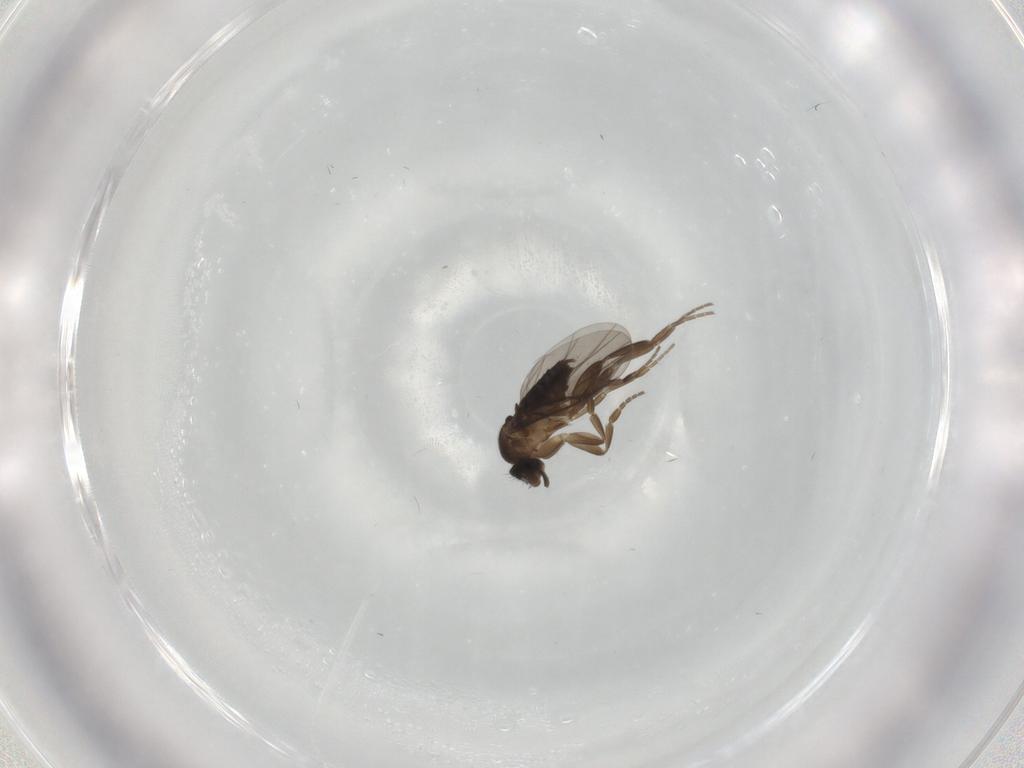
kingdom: Animalia
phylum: Arthropoda
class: Insecta
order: Diptera
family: Phoridae
